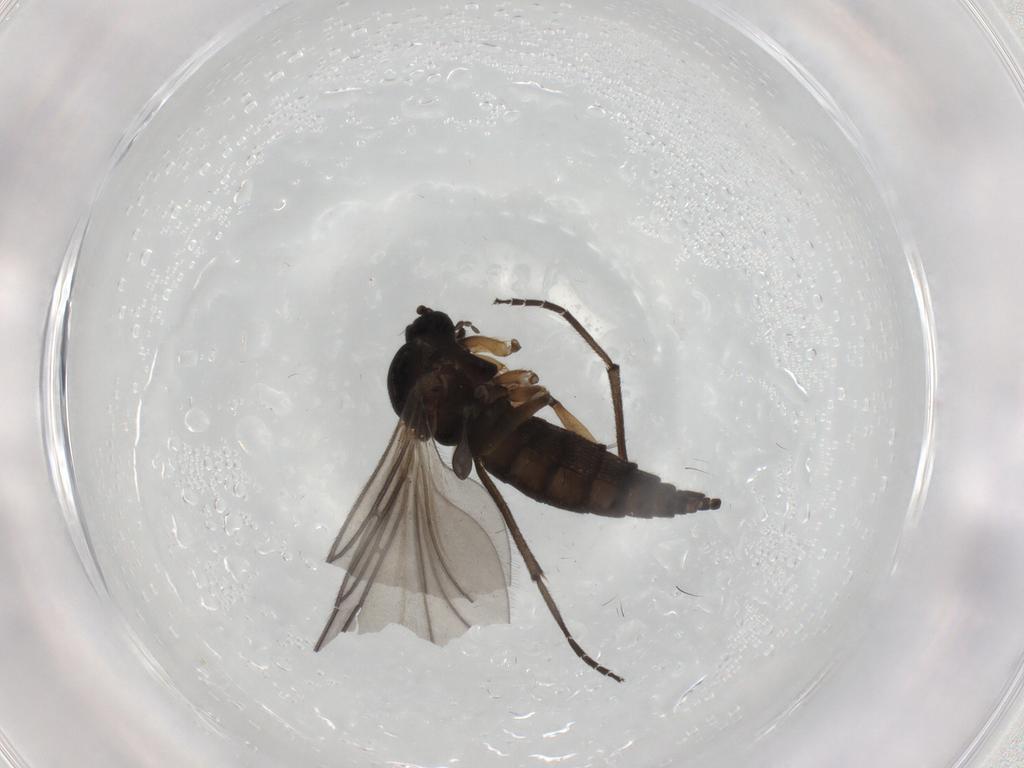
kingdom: Animalia
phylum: Arthropoda
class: Insecta
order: Diptera
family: Sciaridae
